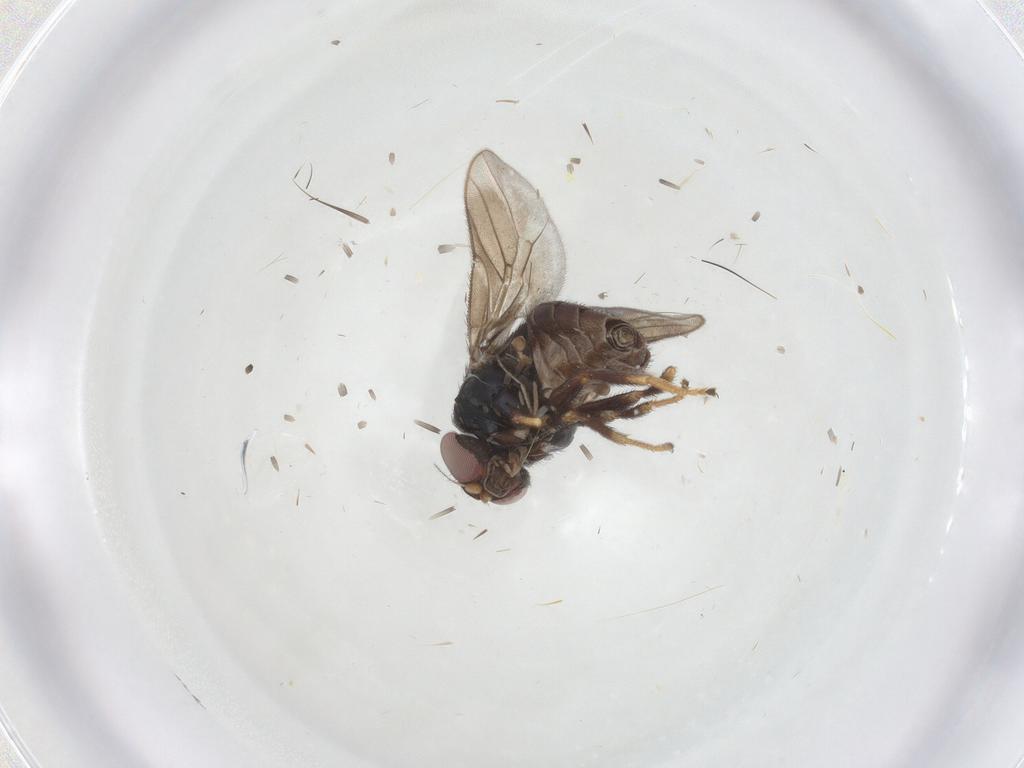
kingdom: Animalia
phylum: Arthropoda
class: Insecta
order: Diptera
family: Chloropidae
